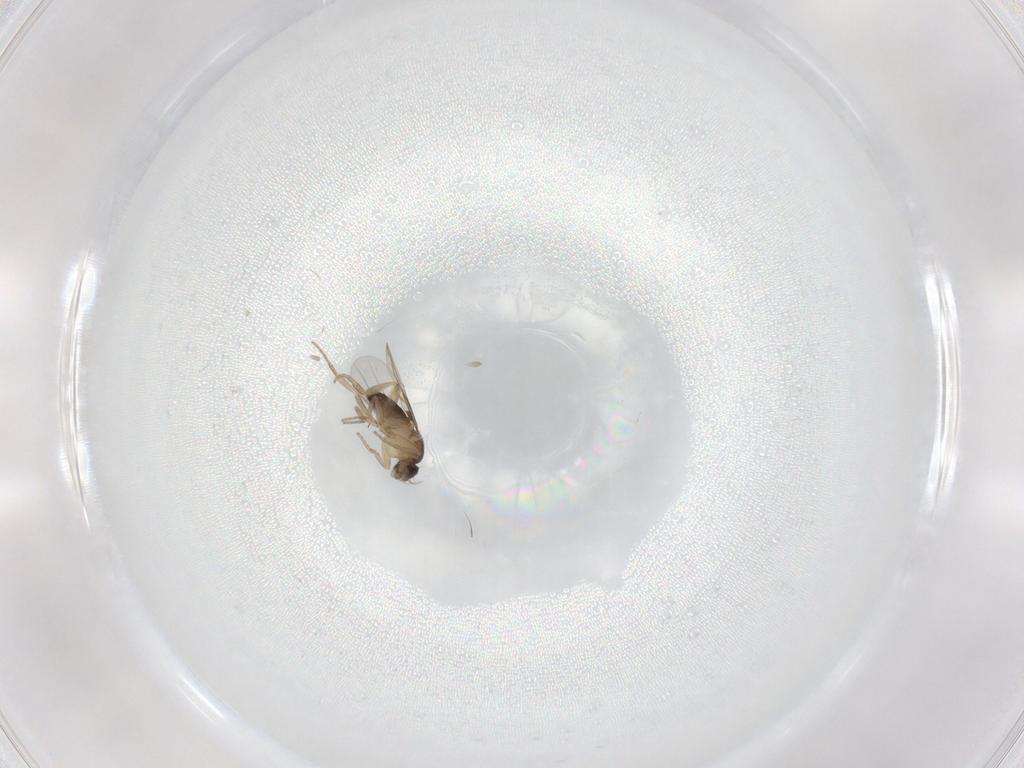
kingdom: Animalia
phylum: Arthropoda
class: Insecta
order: Diptera
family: Phoridae
